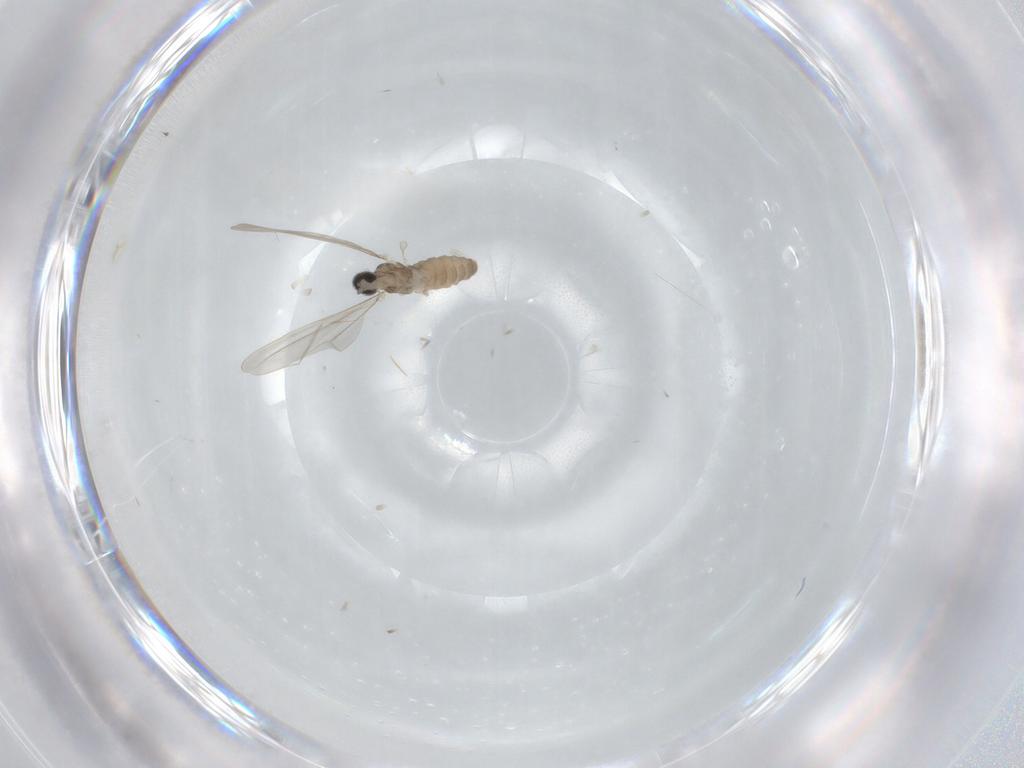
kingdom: Animalia
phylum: Arthropoda
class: Insecta
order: Diptera
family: Cecidomyiidae
